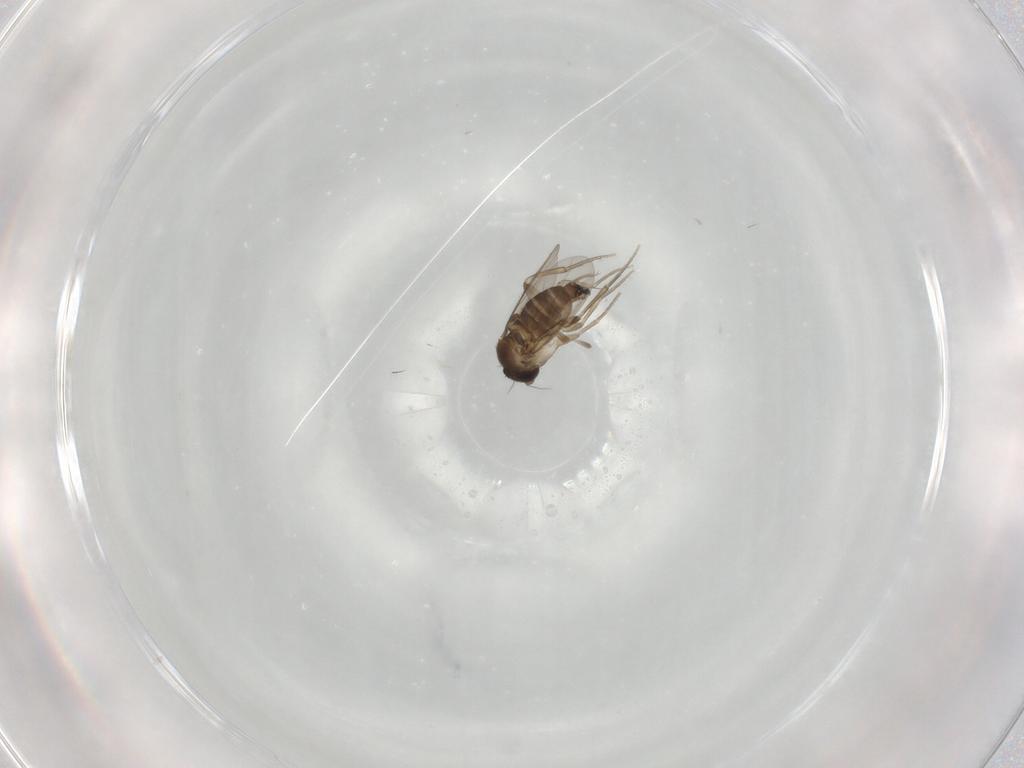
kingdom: Animalia
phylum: Arthropoda
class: Insecta
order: Diptera
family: Phoridae
